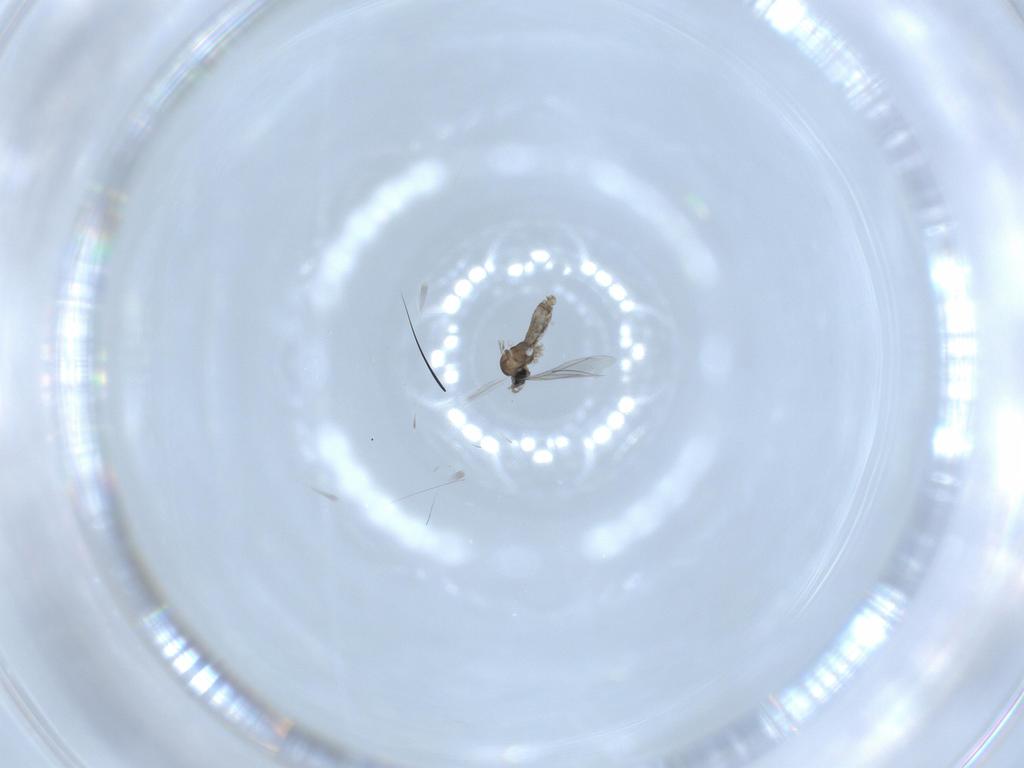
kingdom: Animalia
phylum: Arthropoda
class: Insecta
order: Diptera
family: Cecidomyiidae
